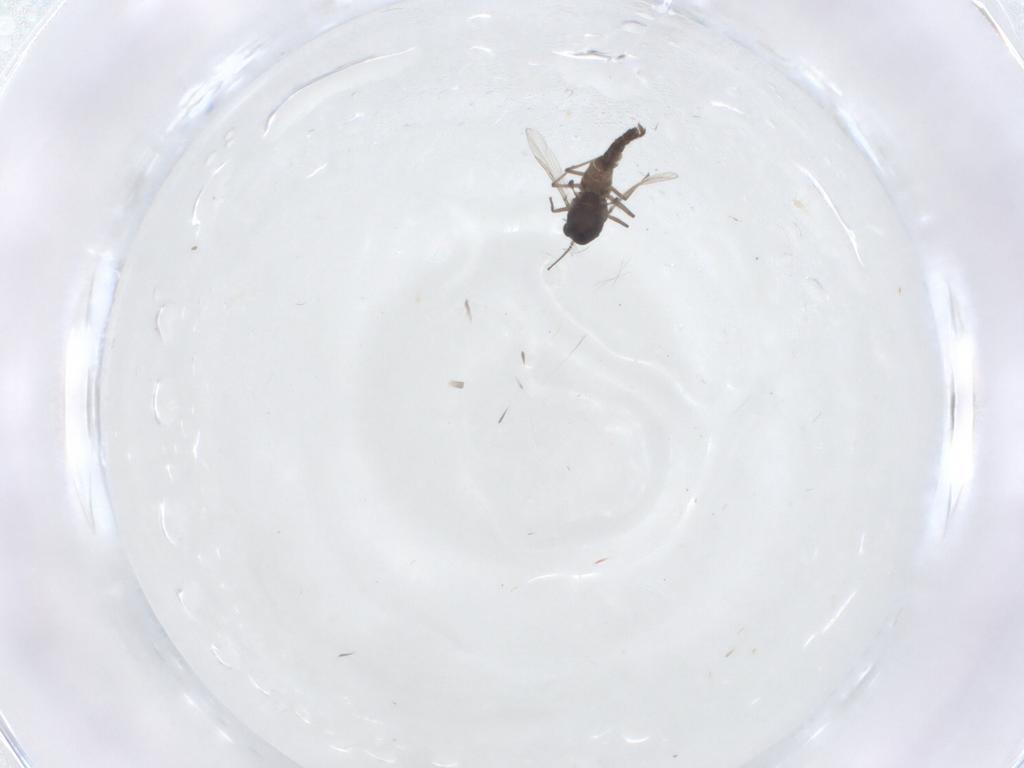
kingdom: Animalia
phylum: Arthropoda
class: Insecta
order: Diptera
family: Chironomidae
